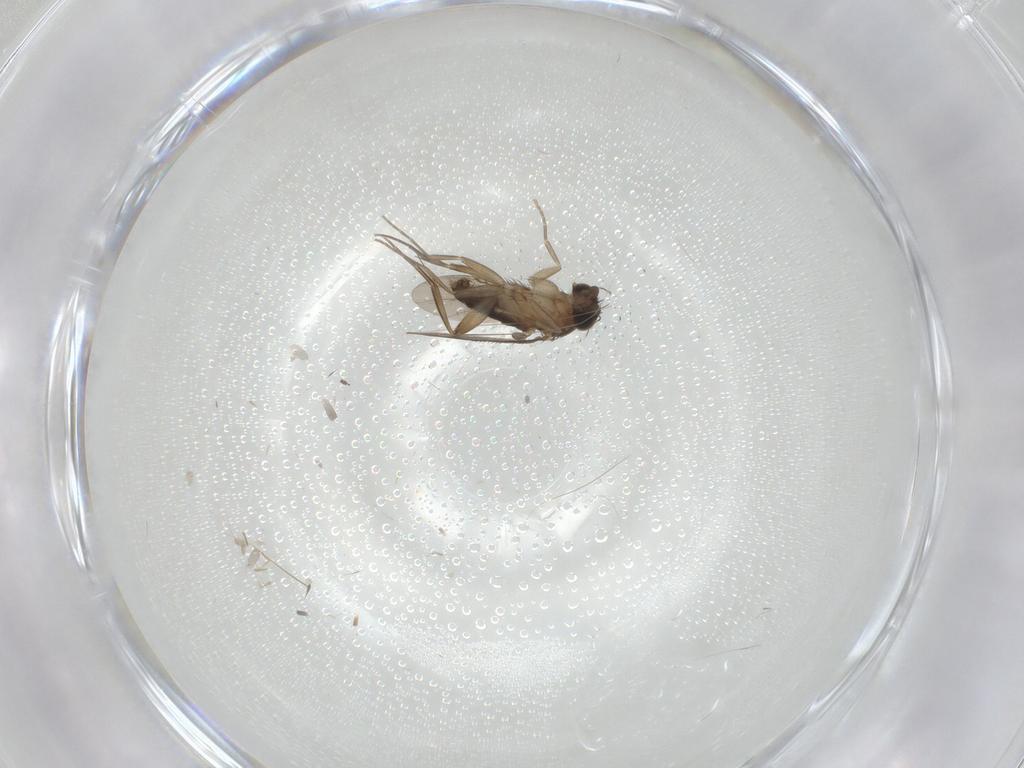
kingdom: Animalia
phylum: Arthropoda
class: Insecta
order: Diptera
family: Phoridae
